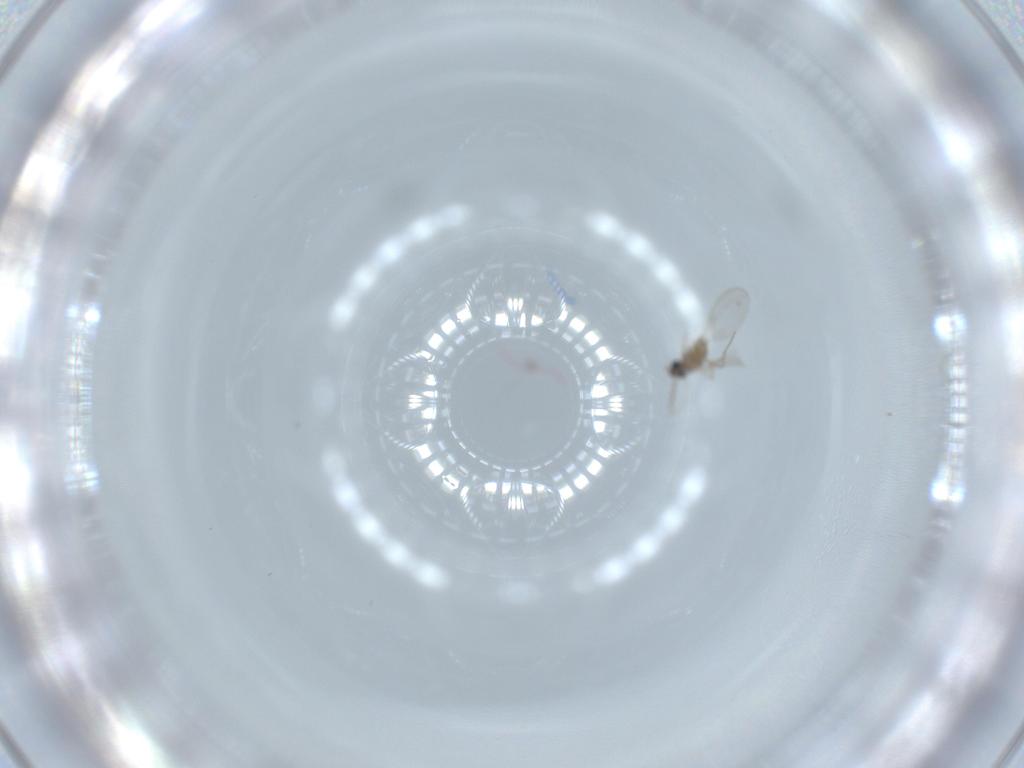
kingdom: Animalia
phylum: Arthropoda
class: Insecta
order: Diptera
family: Cecidomyiidae
